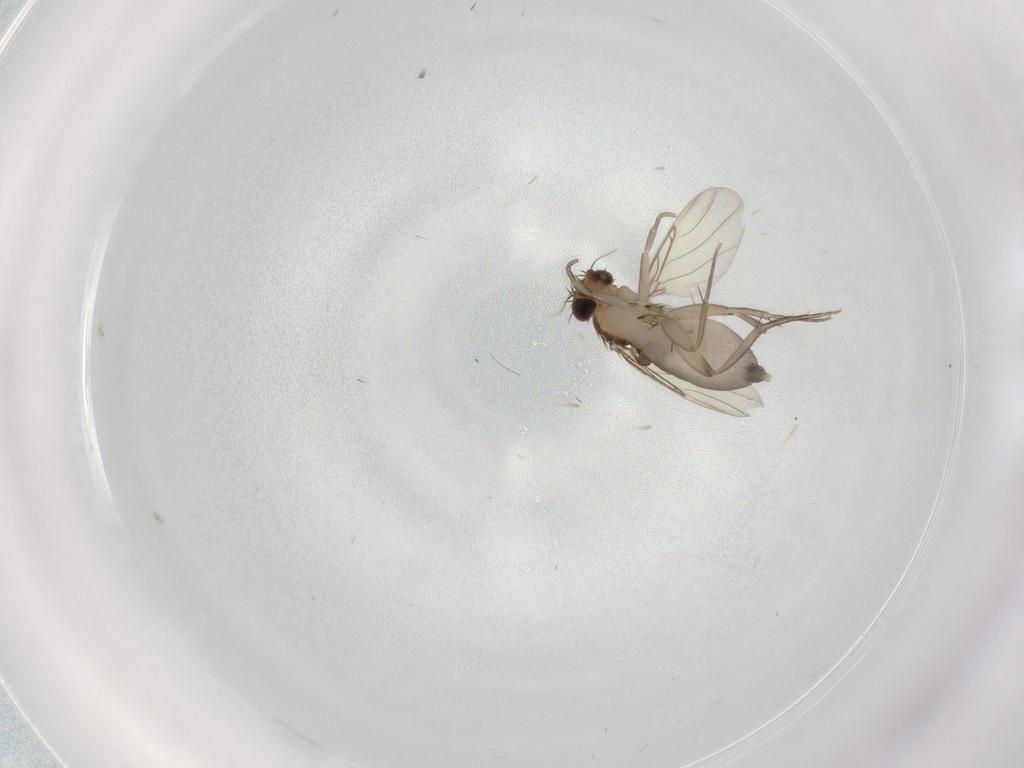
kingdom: Animalia
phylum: Arthropoda
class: Insecta
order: Diptera
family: Phoridae
